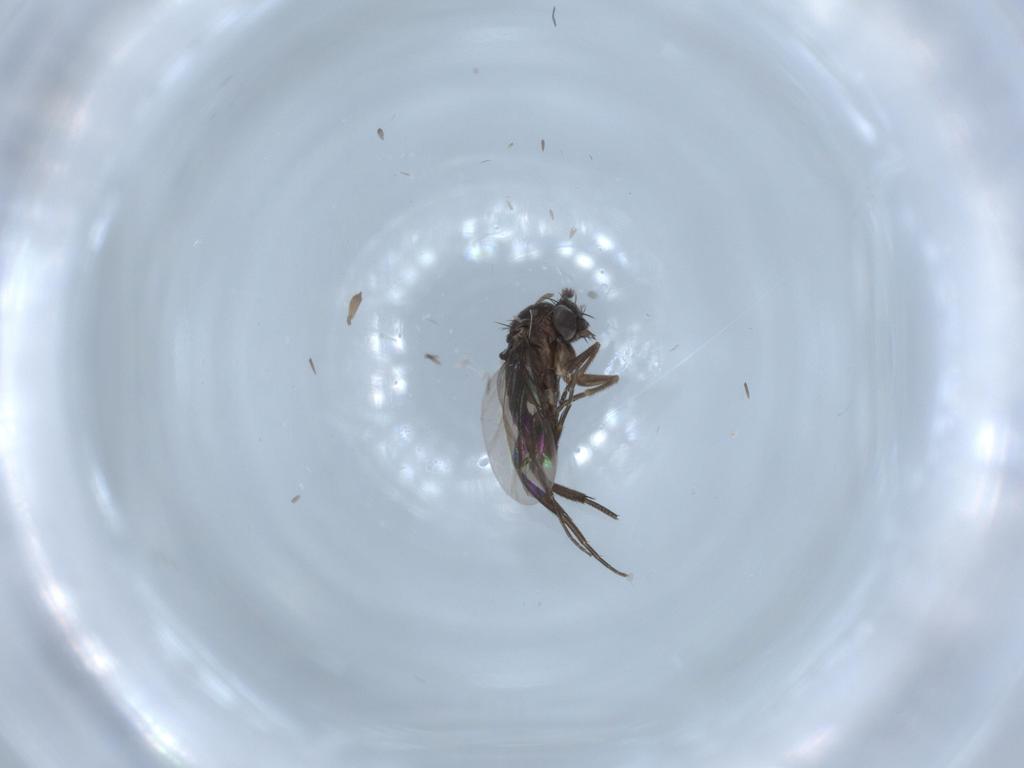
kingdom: Animalia
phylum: Arthropoda
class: Insecta
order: Diptera
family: Phoridae
